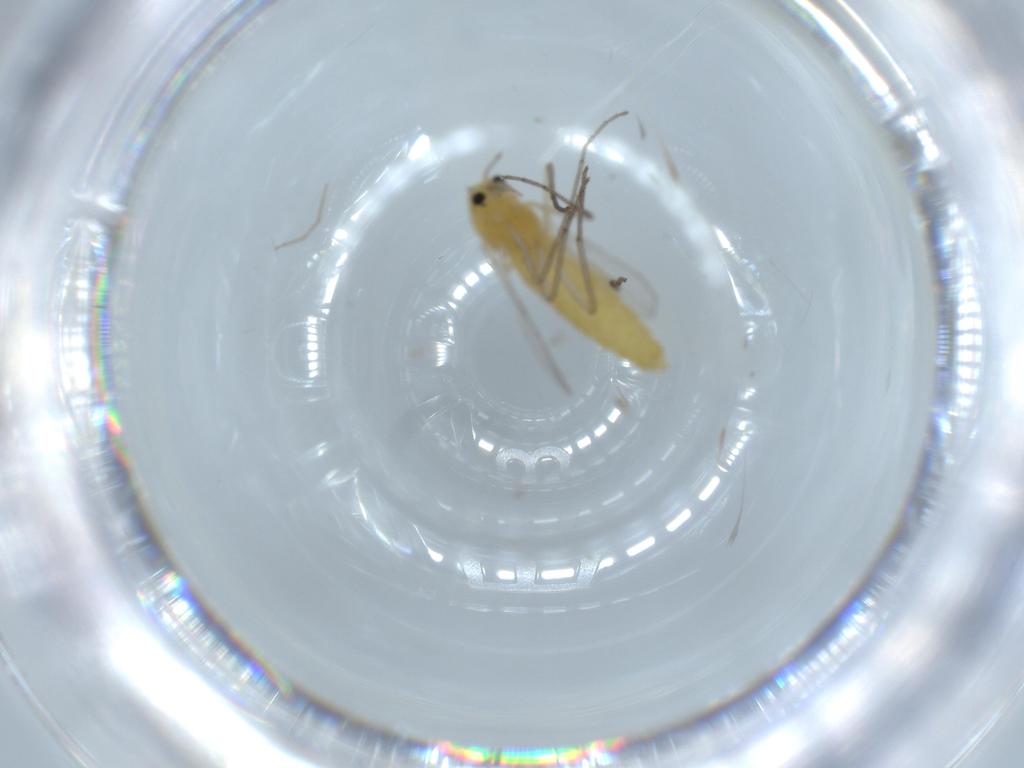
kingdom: Animalia
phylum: Arthropoda
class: Insecta
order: Diptera
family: Chironomidae
